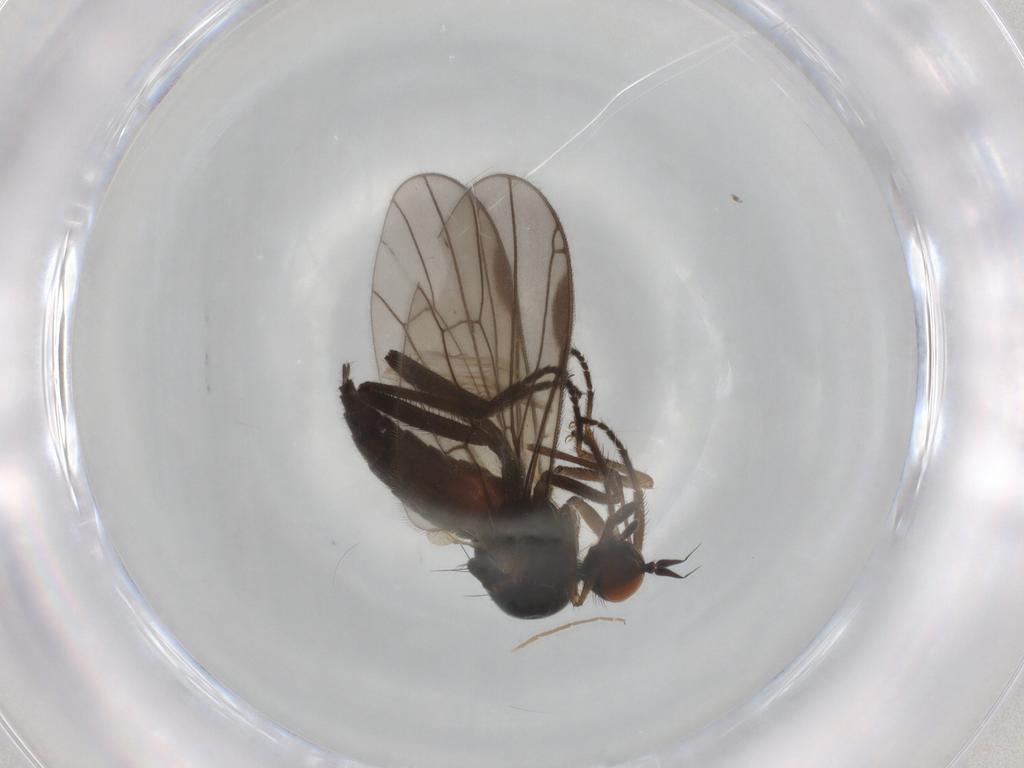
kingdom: Animalia
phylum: Arthropoda
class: Insecta
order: Diptera
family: Hybotidae
